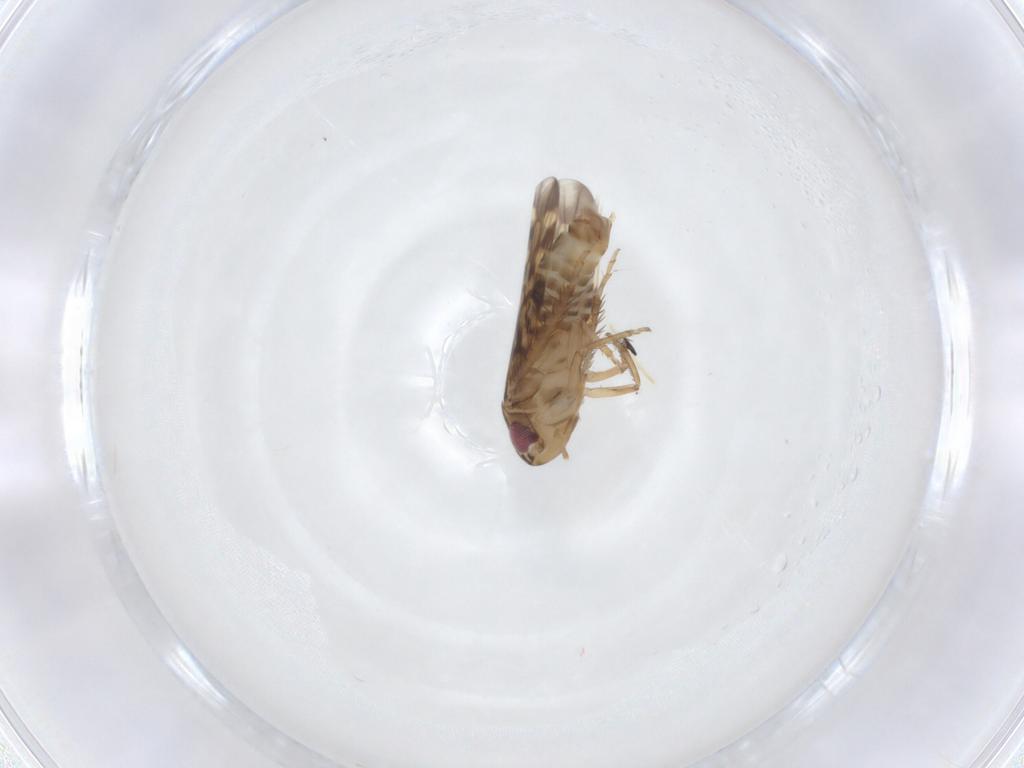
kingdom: Animalia
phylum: Arthropoda
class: Insecta
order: Hemiptera
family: Cicadellidae
